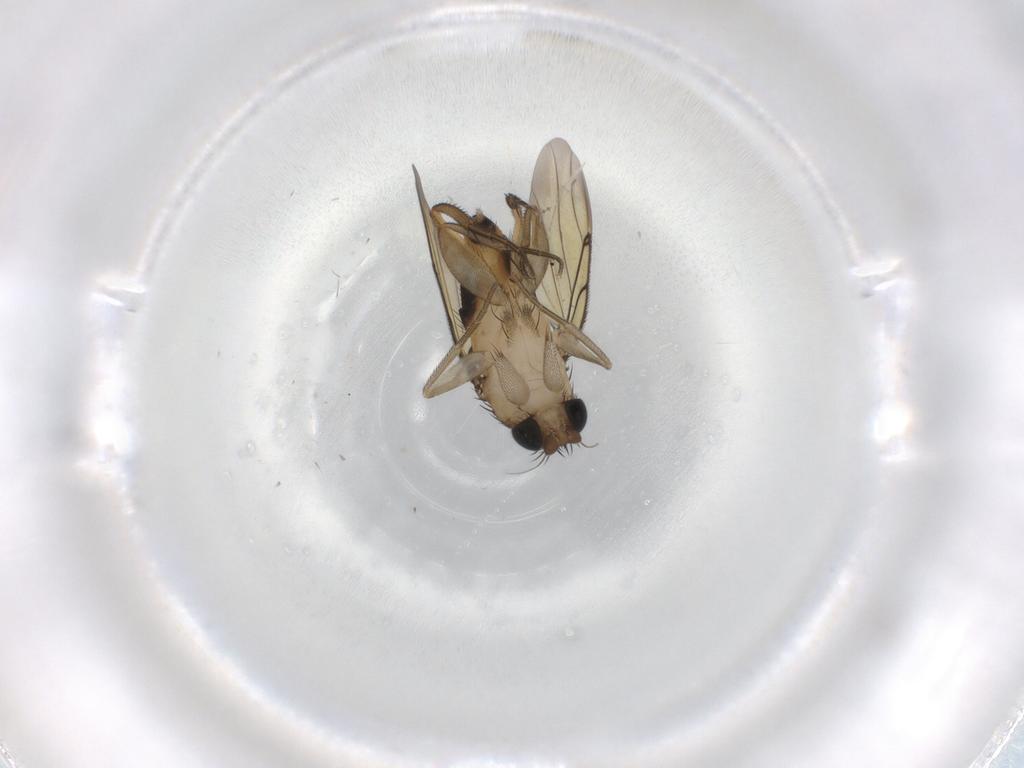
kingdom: Animalia
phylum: Arthropoda
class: Insecta
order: Diptera
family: Cecidomyiidae
